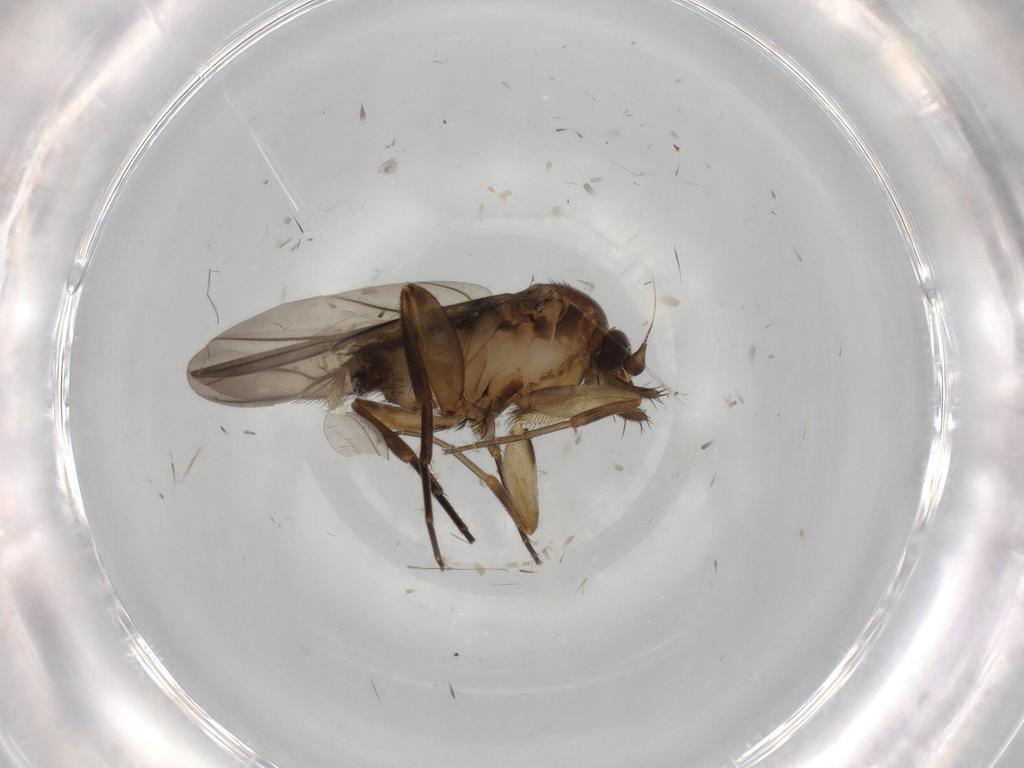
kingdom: Animalia
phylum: Arthropoda
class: Insecta
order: Diptera
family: Phoridae
